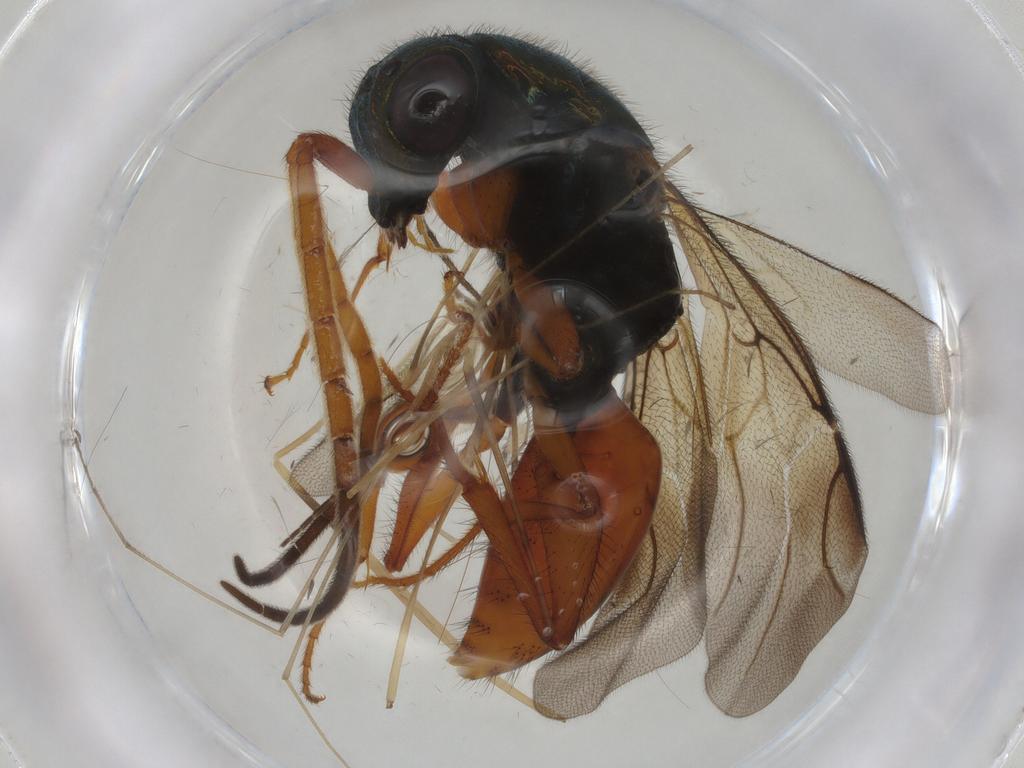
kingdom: Animalia
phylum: Arthropoda
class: Insecta
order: Hymenoptera
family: Chrysididae
